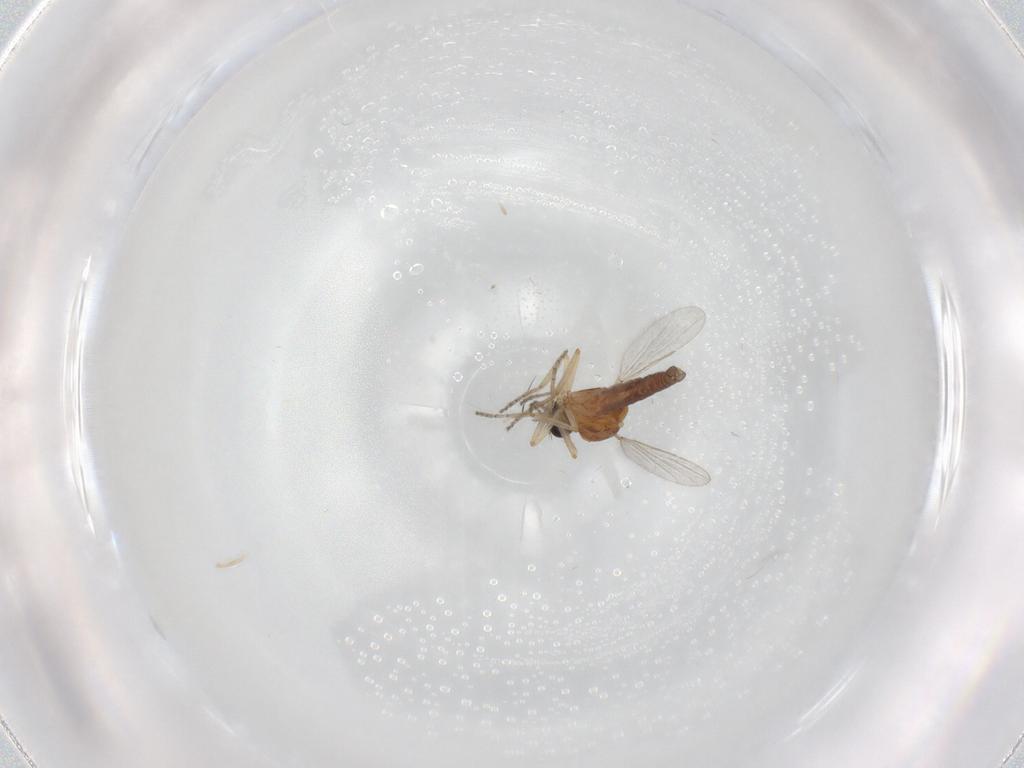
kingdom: Animalia
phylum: Arthropoda
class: Insecta
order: Diptera
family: Ceratopogonidae
